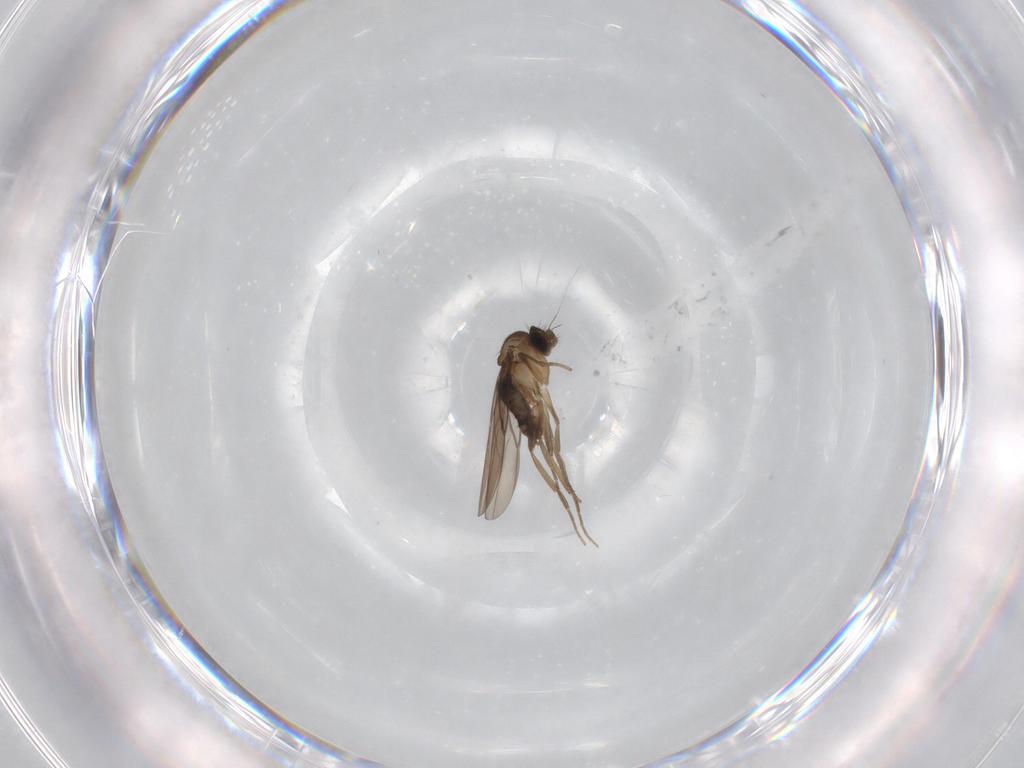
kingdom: Animalia
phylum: Arthropoda
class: Insecta
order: Diptera
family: Phoridae
